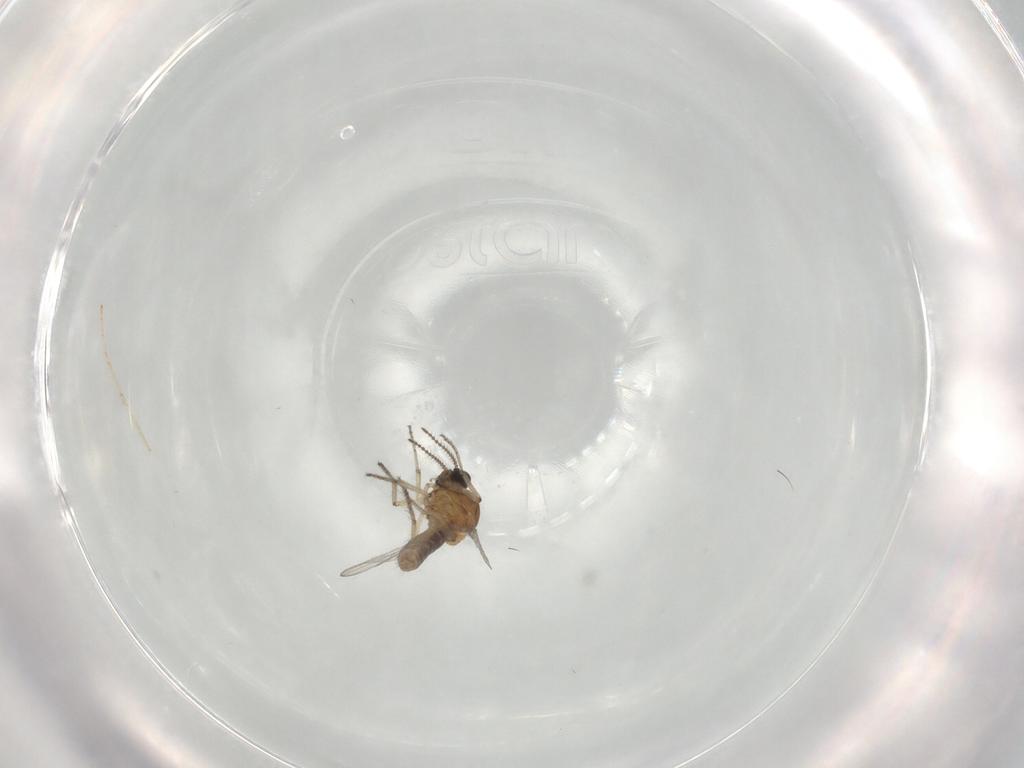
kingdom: Animalia
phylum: Arthropoda
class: Insecta
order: Diptera
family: Ceratopogonidae
